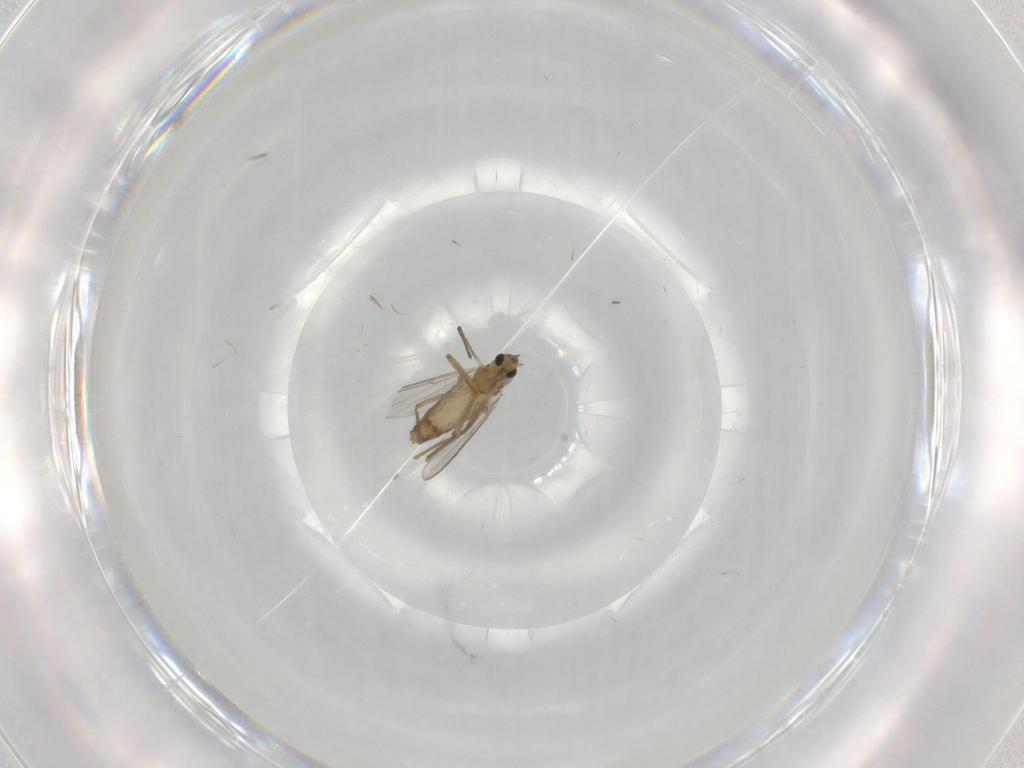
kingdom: Animalia
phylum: Arthropoda
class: Insecta
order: Diptera
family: Chironomidae
